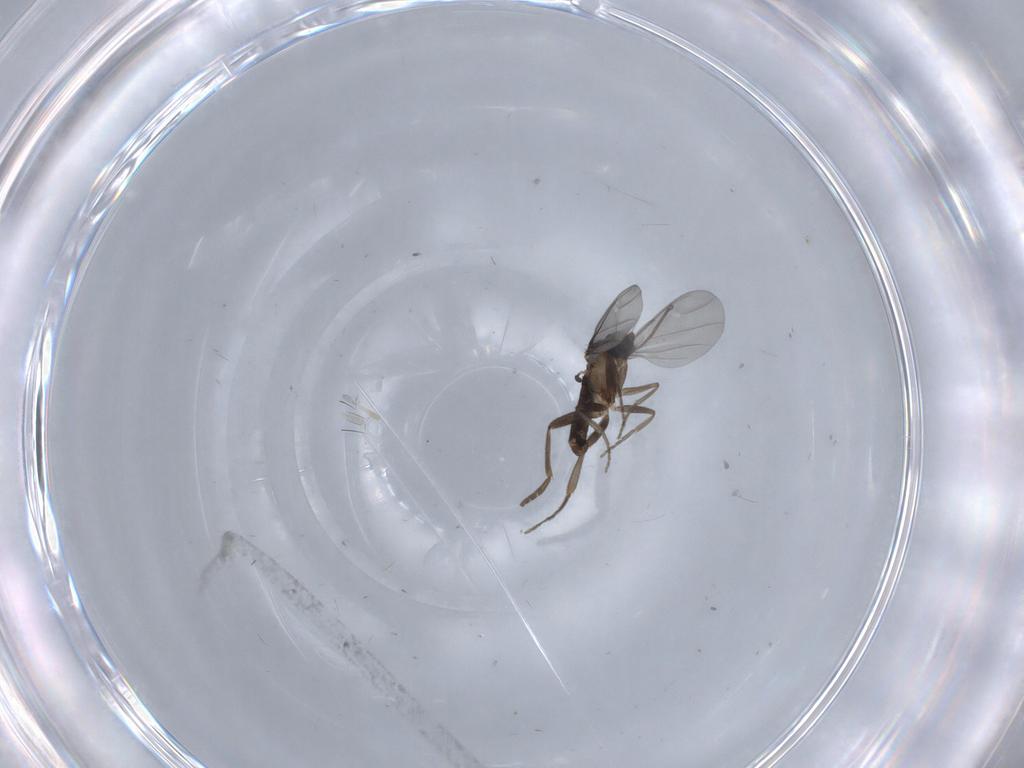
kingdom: Animalia
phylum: Arthropoda
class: Insecta
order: Diptera
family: Phoridae
